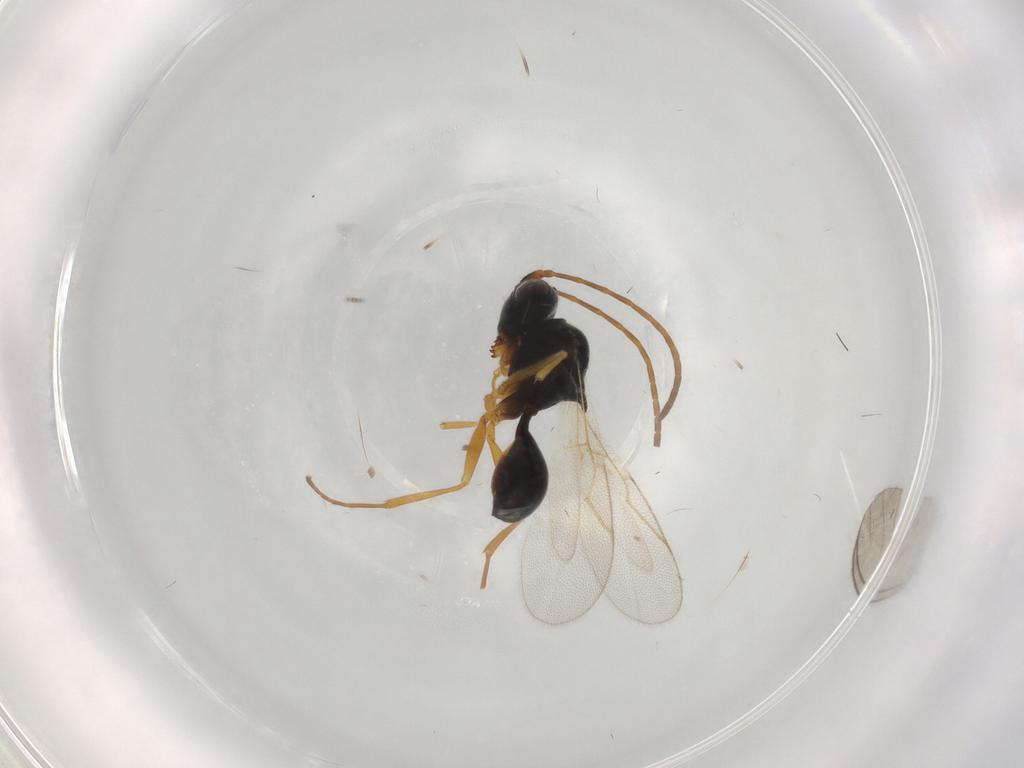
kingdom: Animalia
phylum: Arthropoda
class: Insecta
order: Hymenoptera
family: Figitidae
